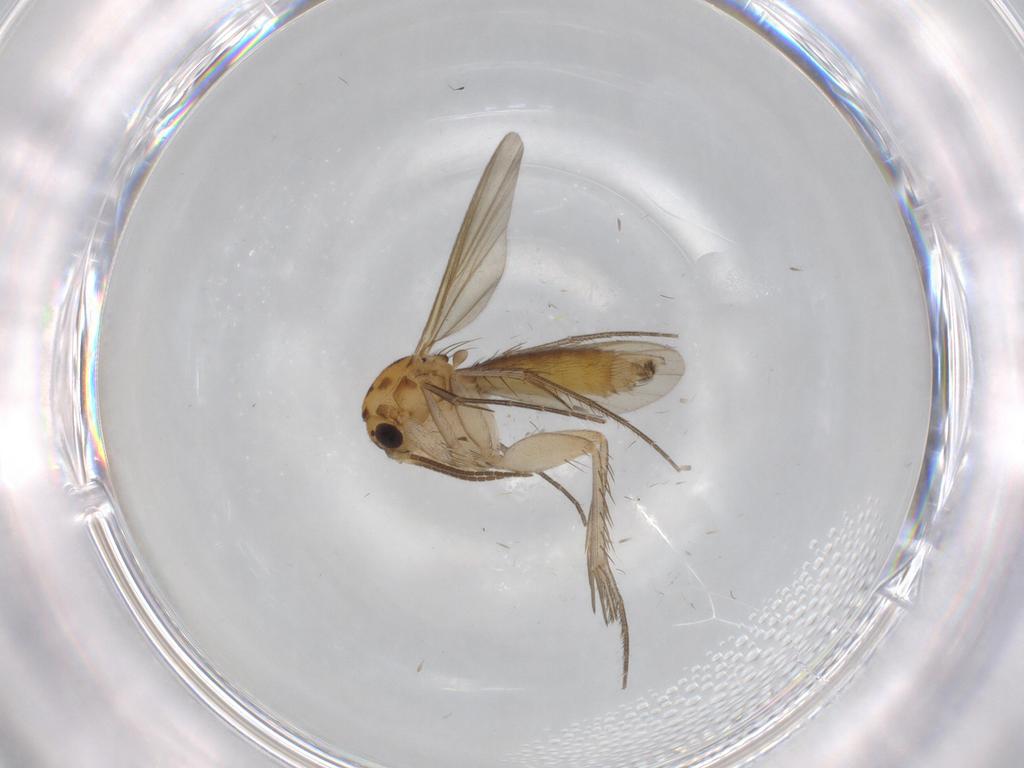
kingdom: Animalia
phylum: Arthropoda
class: Insecta
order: Diptera
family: Mycetophilidae
